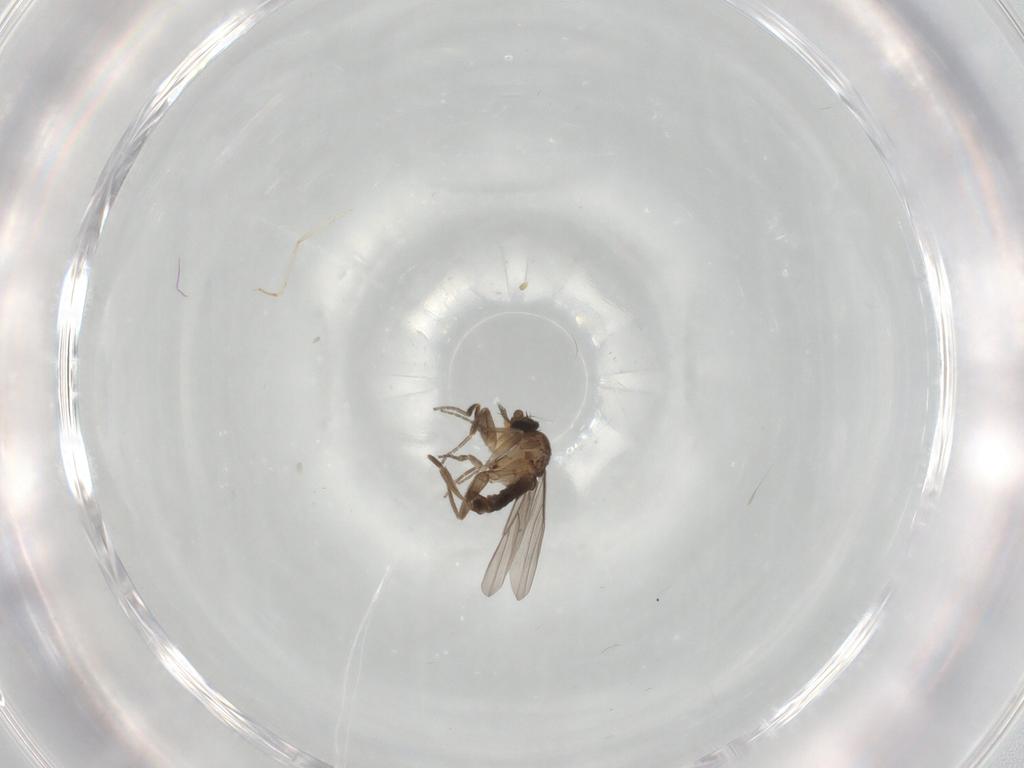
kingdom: Animalia
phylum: Arthropoda
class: Insecta
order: Diptera
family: Cecidomyiidae
